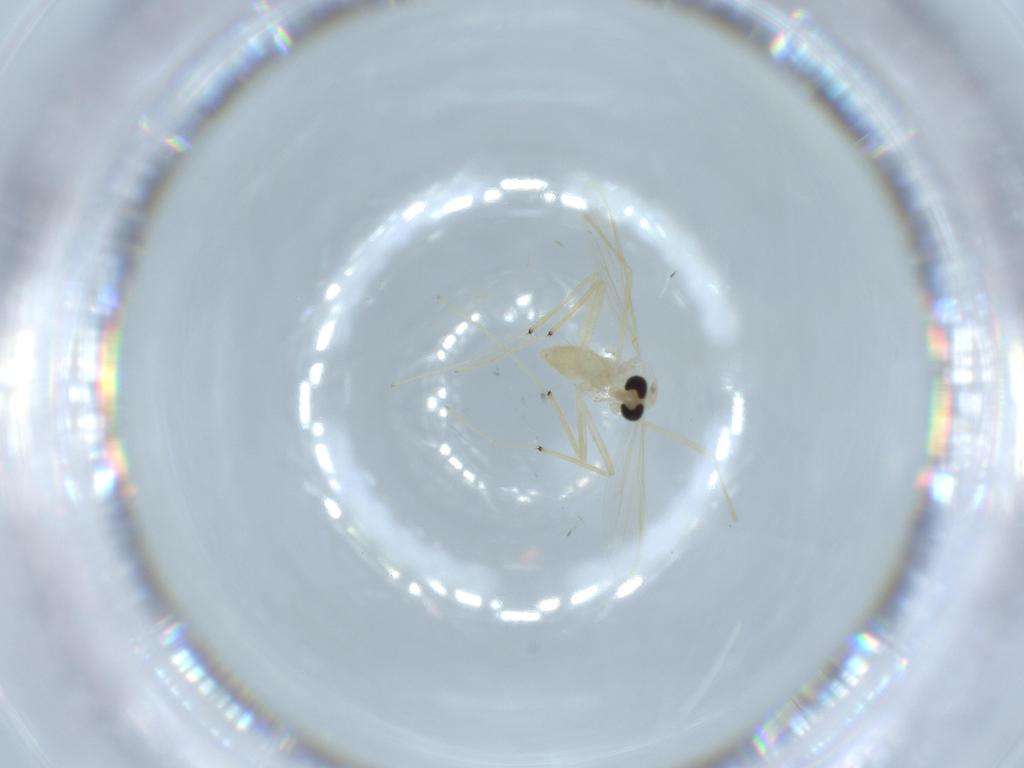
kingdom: Animalia
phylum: Arthropoda
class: Insecta
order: Diptera
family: Chironomidae
